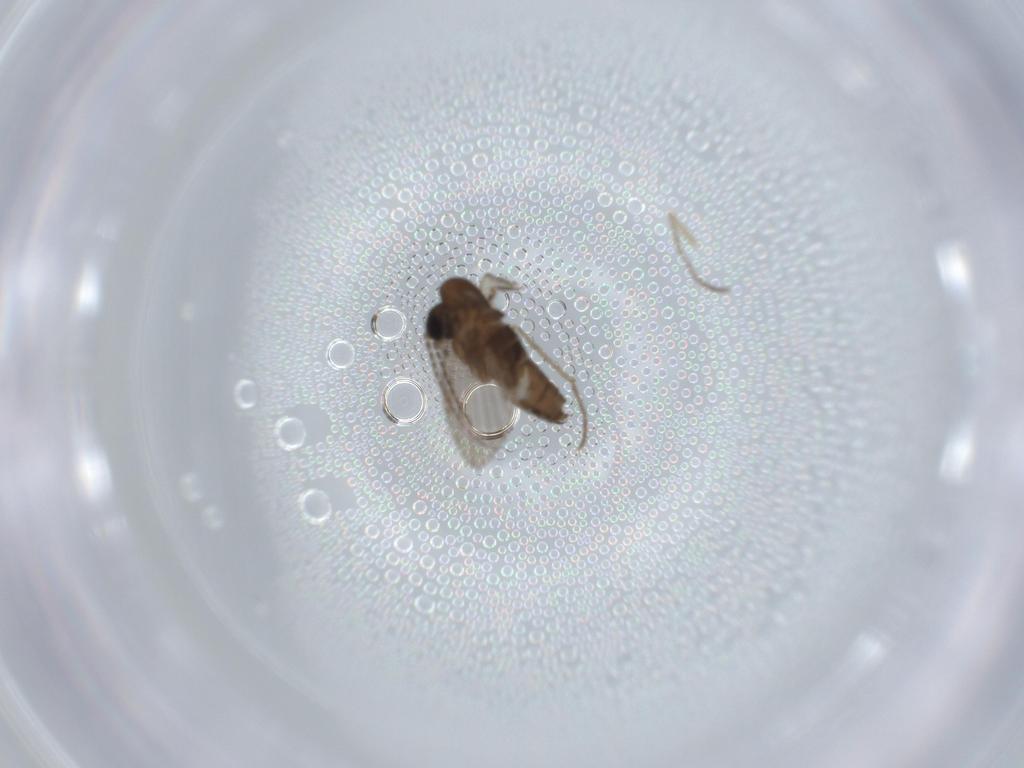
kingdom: Animalia
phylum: Arthropoda
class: Insecta
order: Diptera
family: Psychodidae
